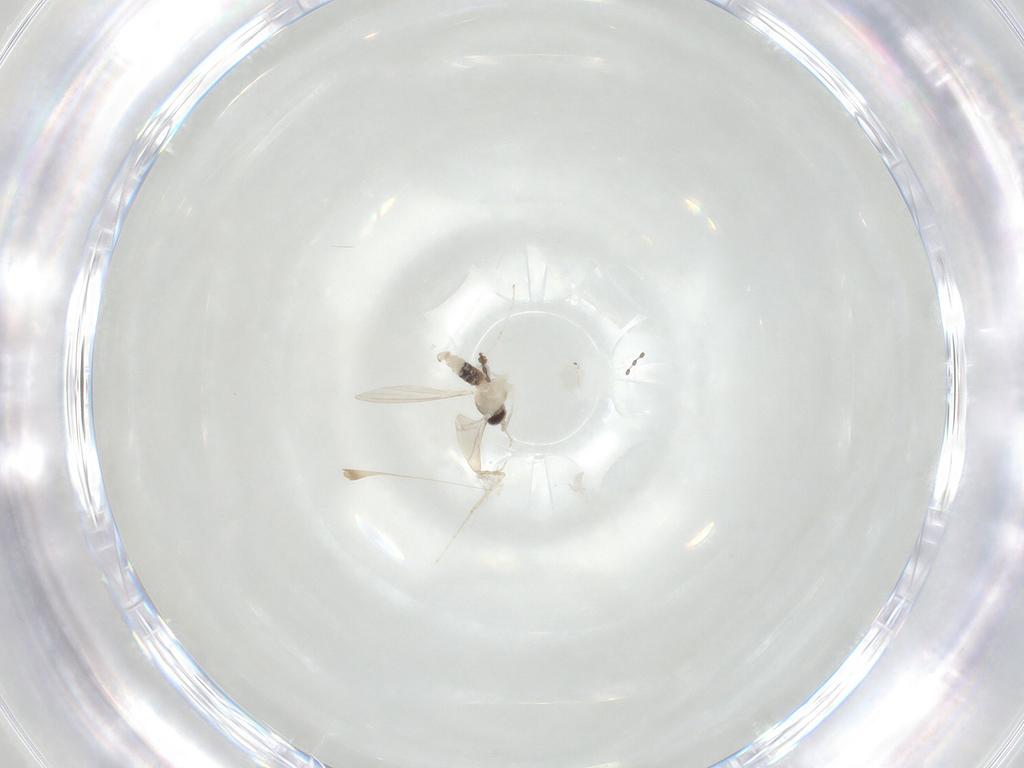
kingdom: Animalia
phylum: Arthropoda
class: Insecta
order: Diptera
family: Cecidomyiidae
